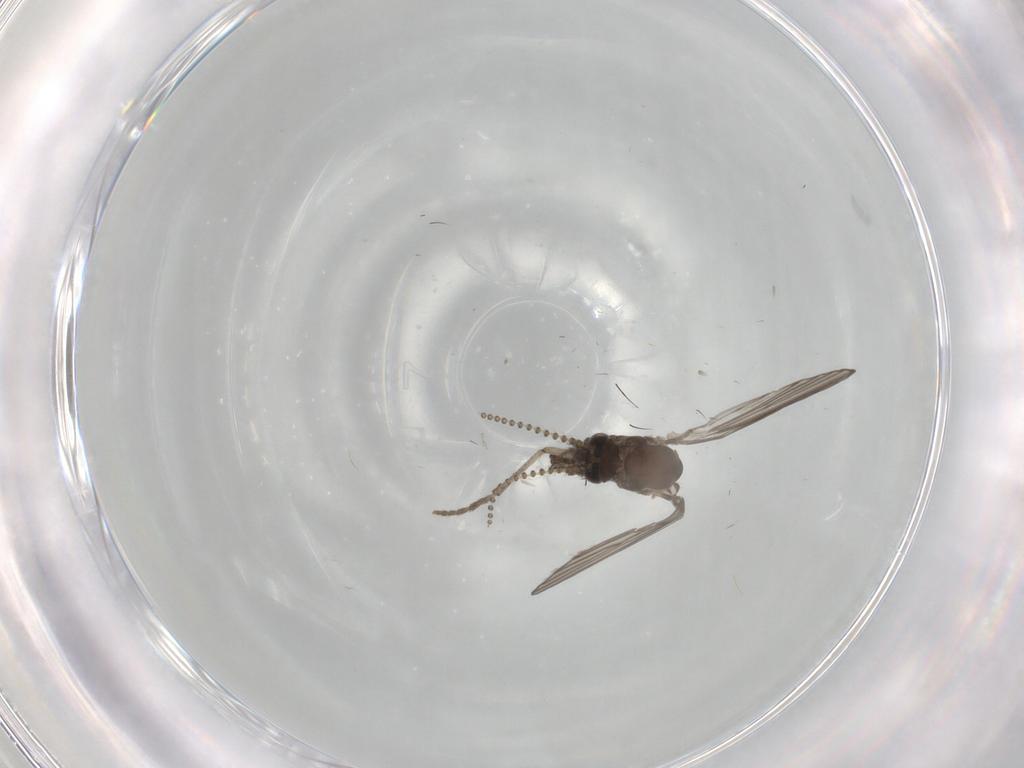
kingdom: Animalia
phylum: Arthropoda
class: Insecta
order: Diptera
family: Psychodidae
